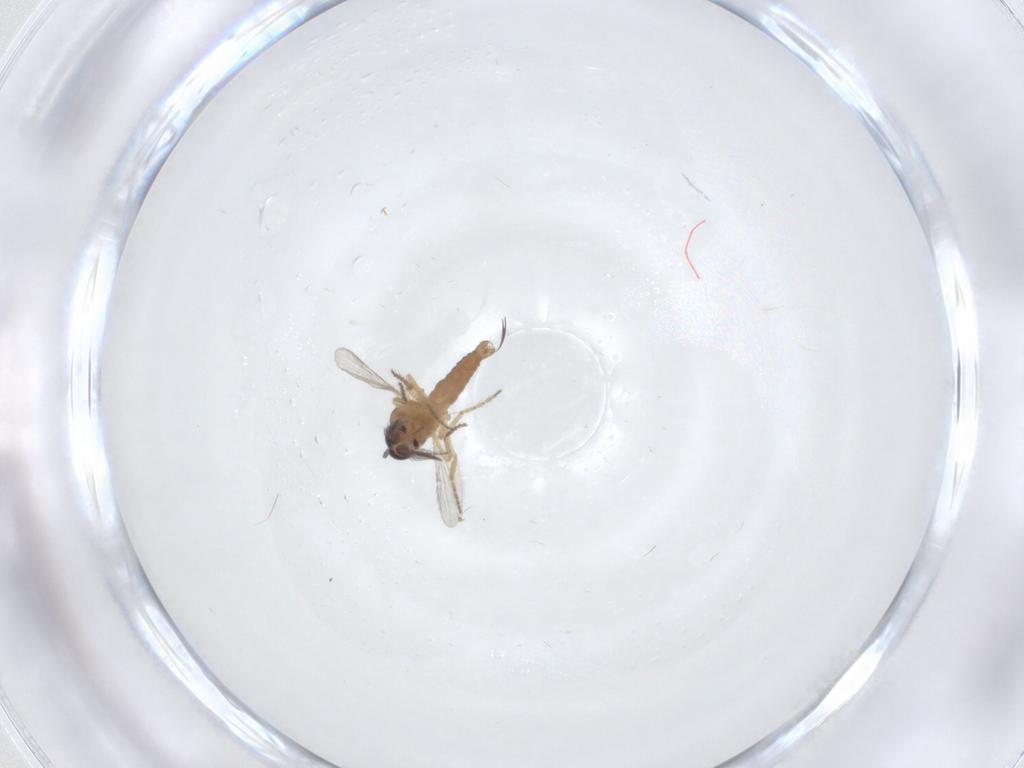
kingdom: Animalia
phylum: Arthropoda
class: Insecta
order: Diptera
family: Ceratopogonidae
